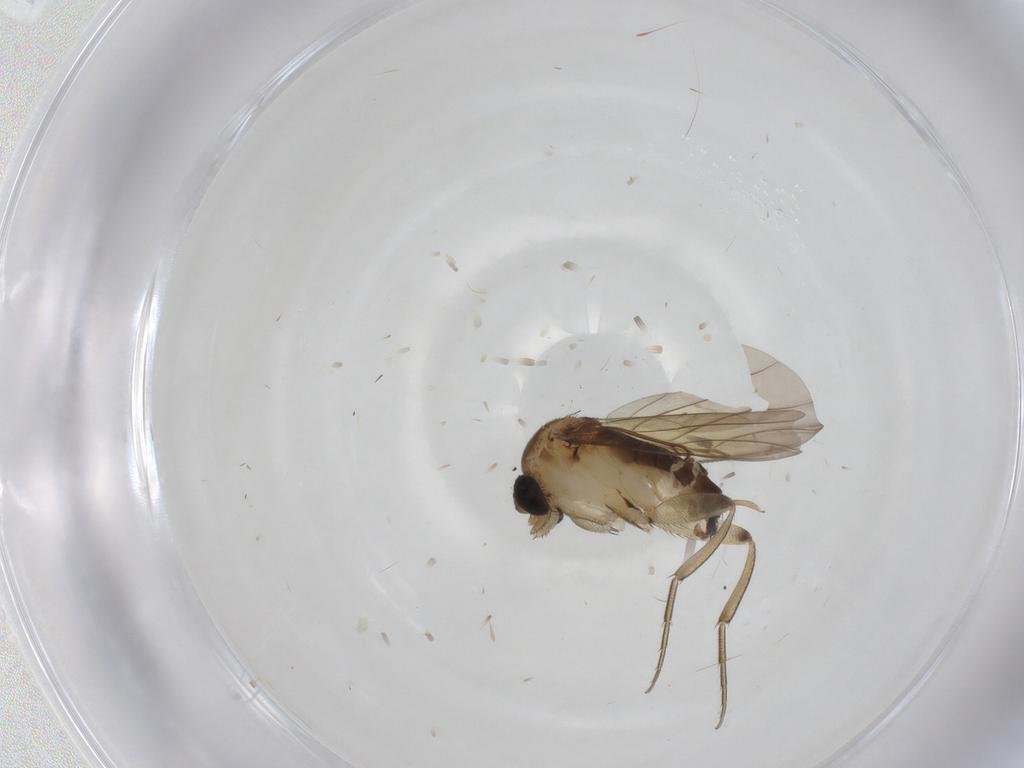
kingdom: Animalia
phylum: Arthropoda
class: Insecta
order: Diptera
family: Phoridae
